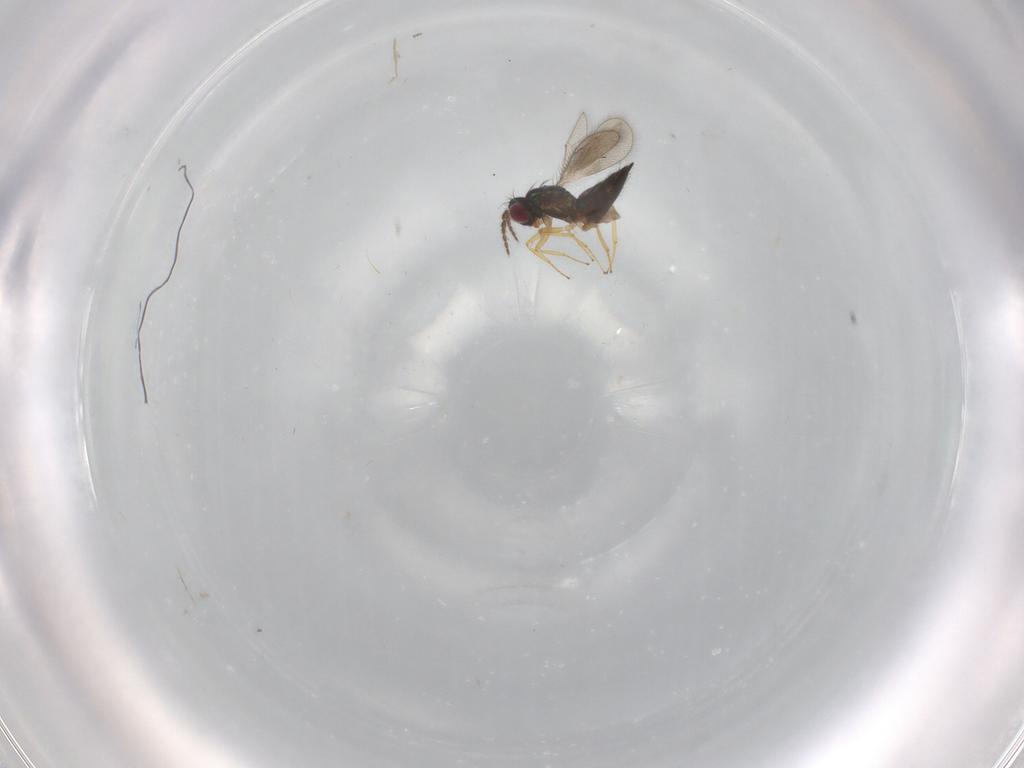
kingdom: Animalia
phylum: Arthropoda
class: Insecta
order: Hymenoptera
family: Eulophidae
